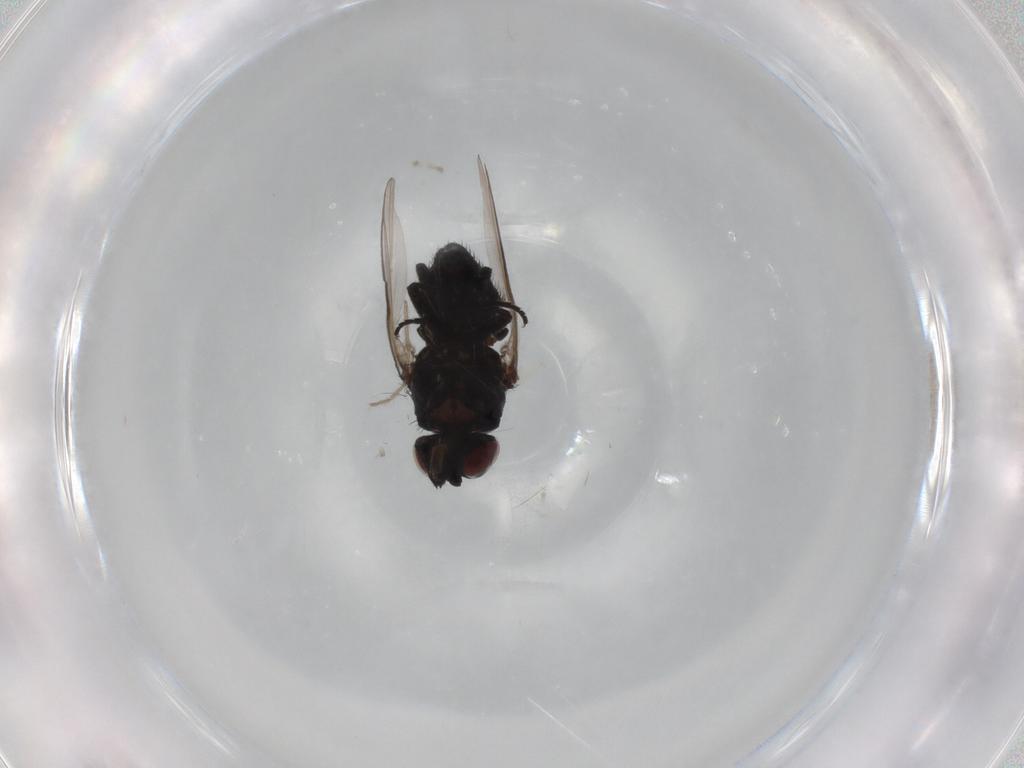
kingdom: Animalia
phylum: Arthropoda
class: Insecta
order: Diptera
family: Agromyzidae
